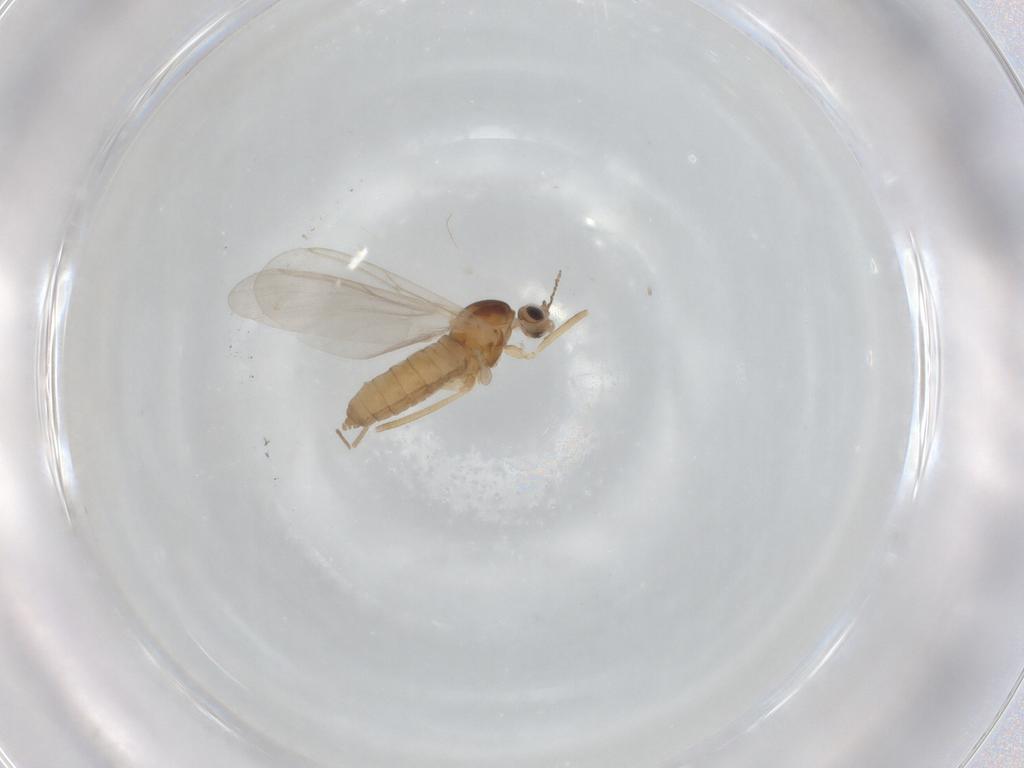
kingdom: Animalia
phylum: Arthropoda
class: Insecta
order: Diptera
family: Cecidomyiidae
